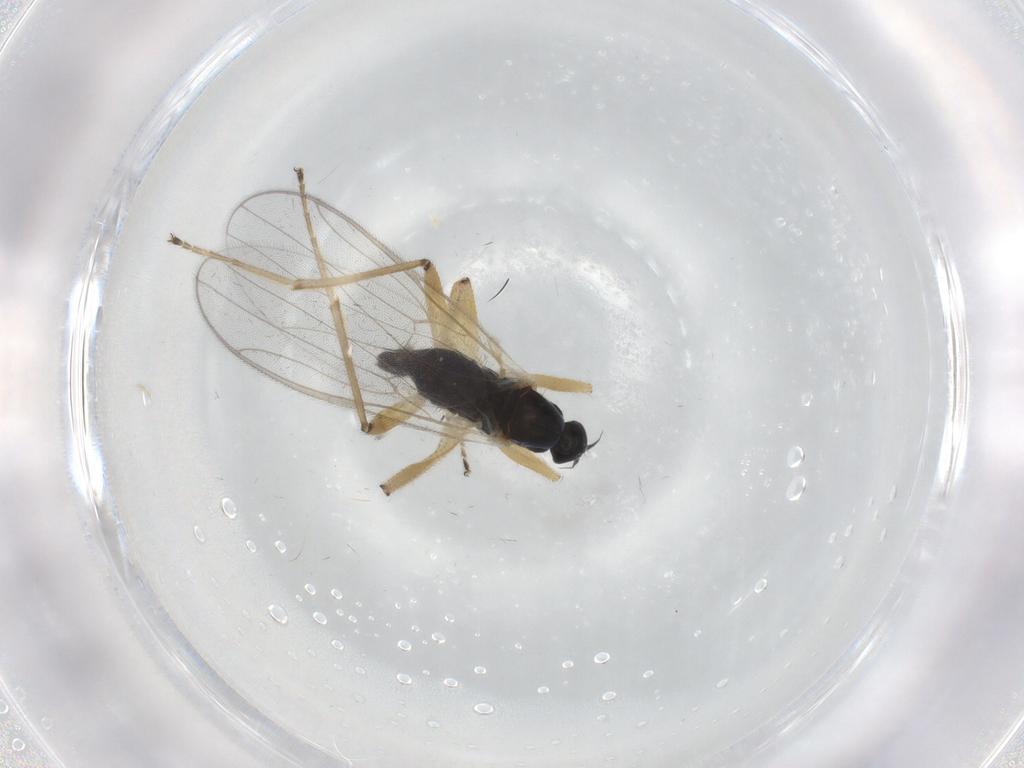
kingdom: Animalia
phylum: Arthropoda
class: Insecta
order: Diptera
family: Hybotidae
